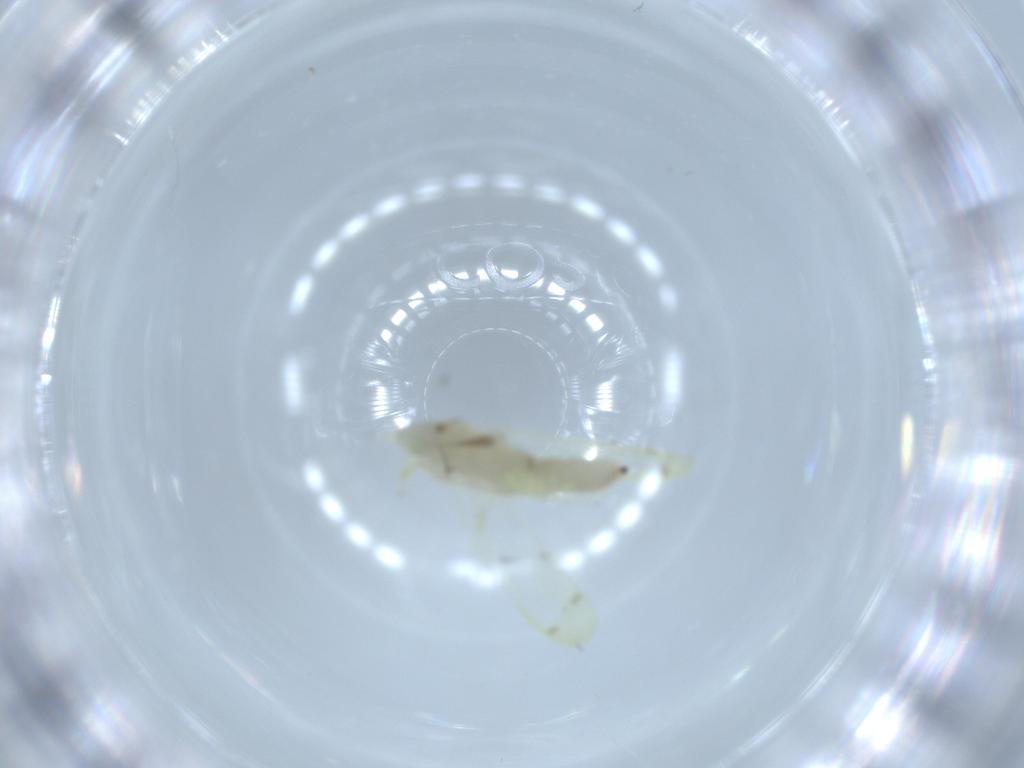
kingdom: Animalia
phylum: Arthropoda
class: Insecta
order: Hemiptera
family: Cicadellidae
